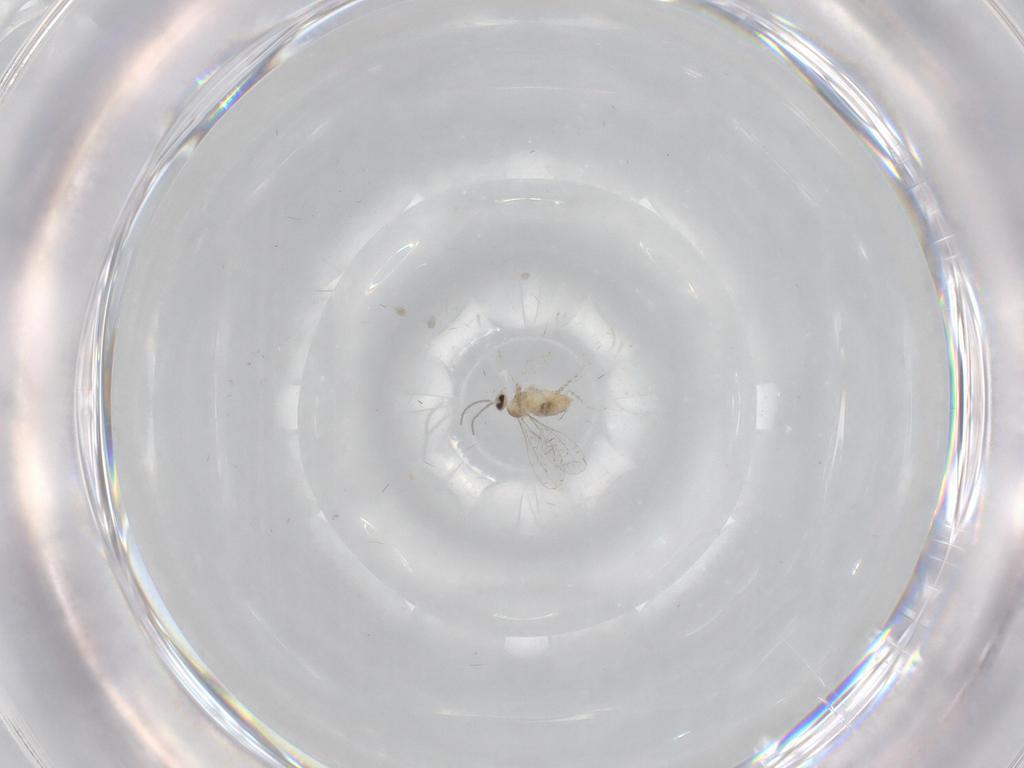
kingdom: Animalia
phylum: Arthropoda
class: Insecta
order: Diptera
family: Cecidomyiidae
